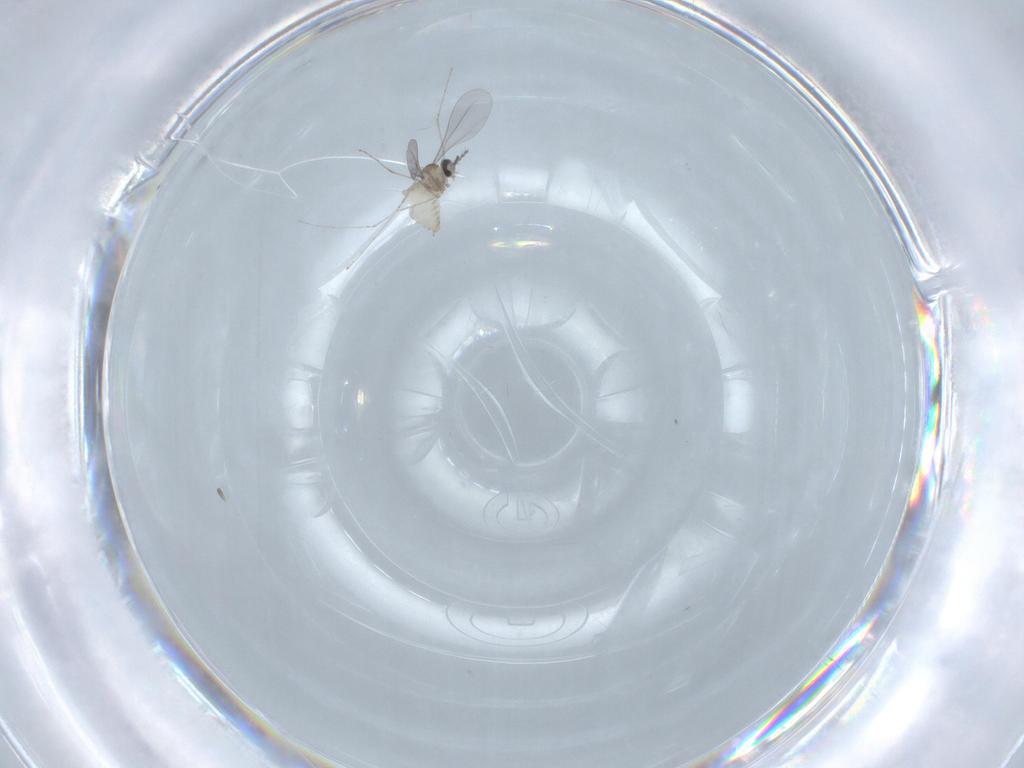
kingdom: Animalia
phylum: Arthropoda
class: Insecta
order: Diptera
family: Cecidomyiidae
